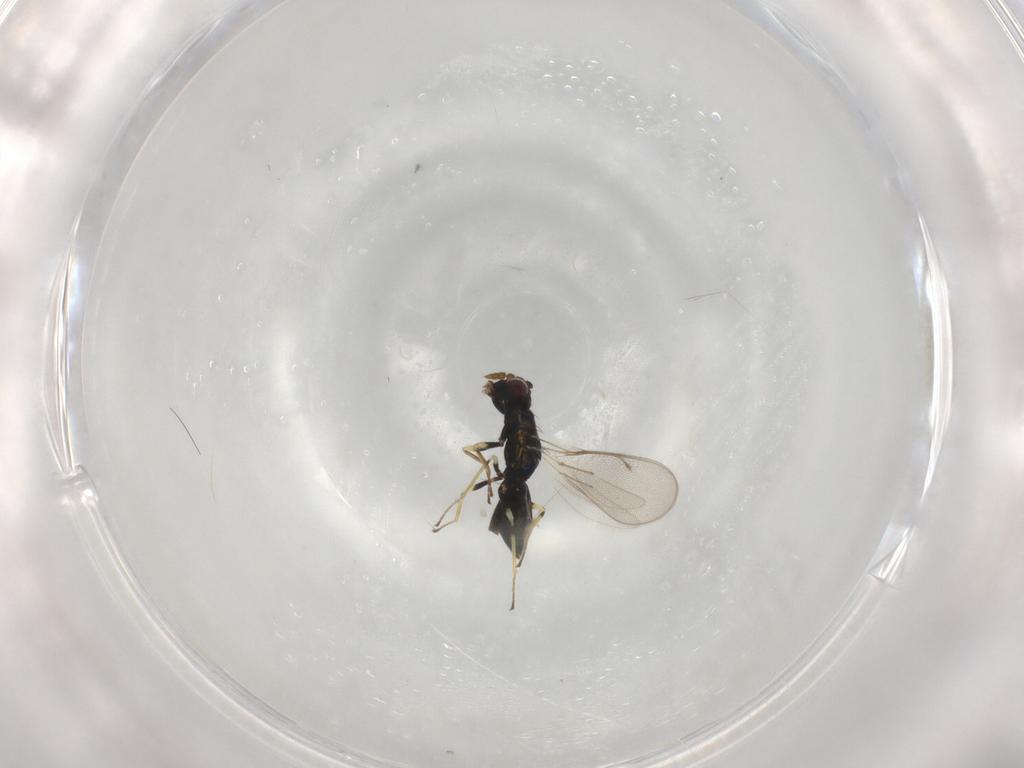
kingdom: Animalia
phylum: Arthropoda
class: Insecta
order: Hymenoptera
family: Eulophidae
